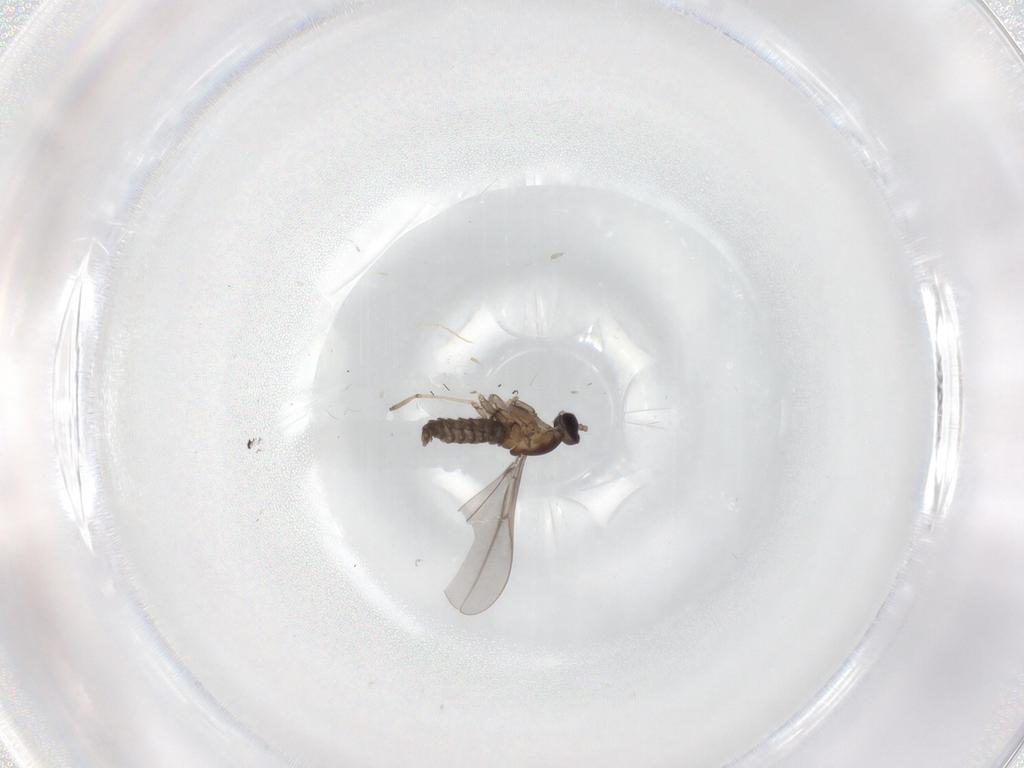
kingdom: Animalia
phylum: Arthropoda
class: Insecta
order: Diptera
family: Cecidomyiidae
